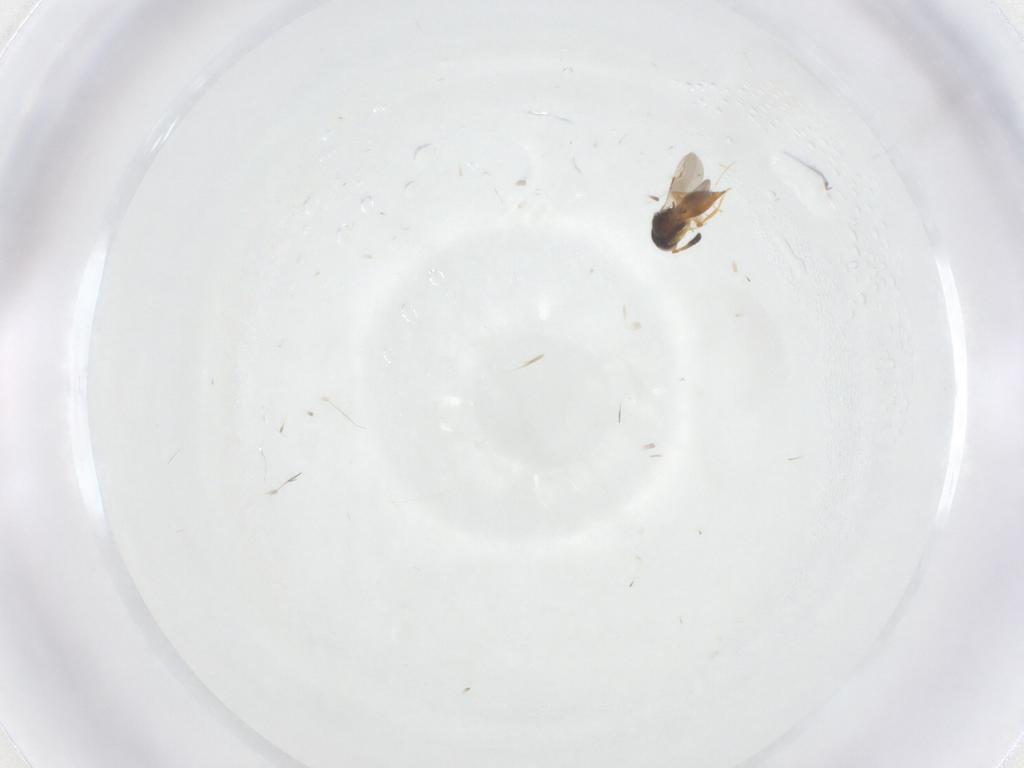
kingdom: Animalia
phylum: Arthropoda
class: Insecta
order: Hymenoptera
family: Ceraphronidae
